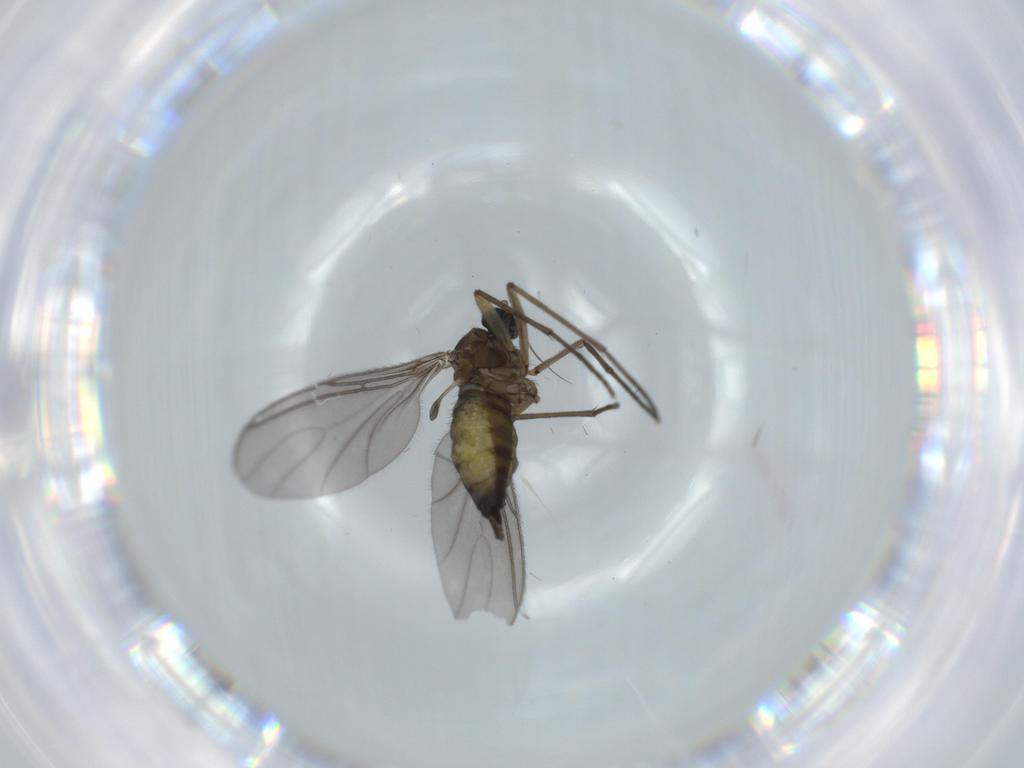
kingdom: Animalia
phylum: Arthropoda
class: Insecta
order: Diptera
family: Sciaridae
